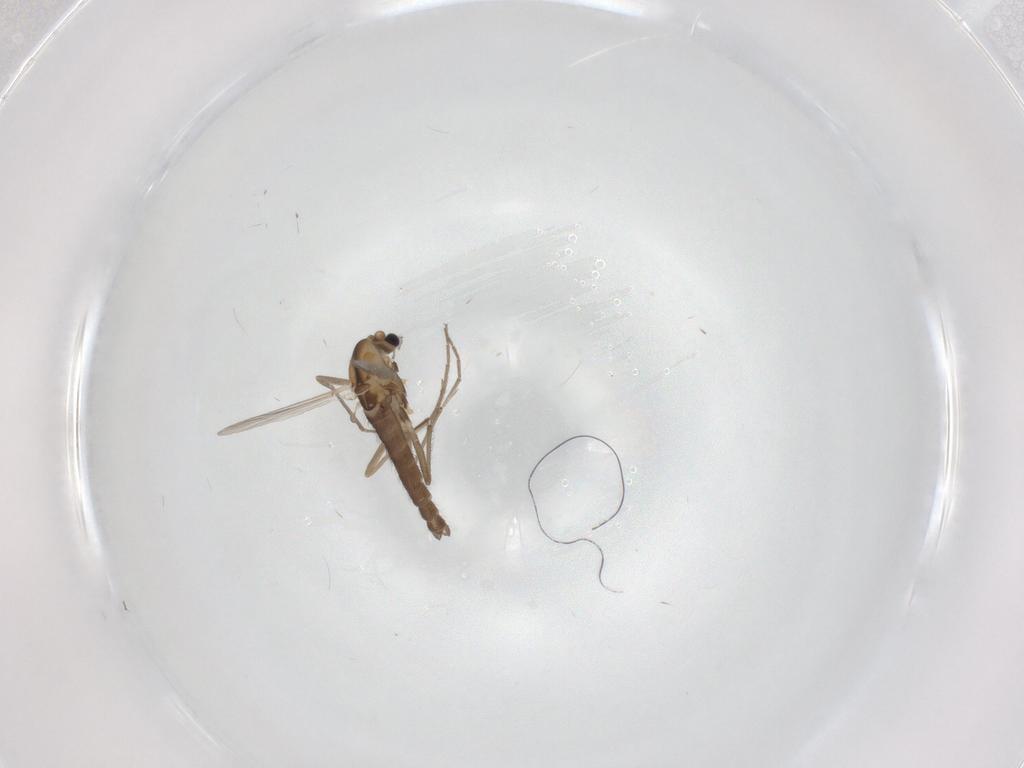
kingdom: Animalia
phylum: Arthropoda
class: Insecta
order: Diptera
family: Chironomidae
